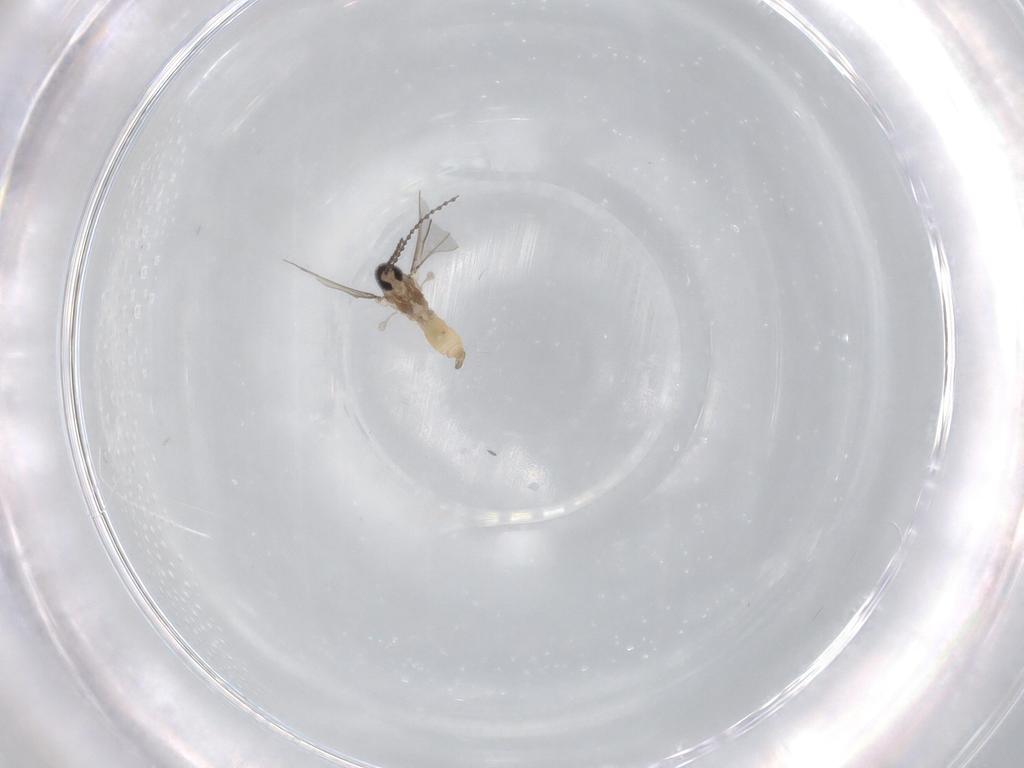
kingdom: Animalia
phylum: Arthropoda
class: Insecta
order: Diptera
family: Cecidomyiidae
